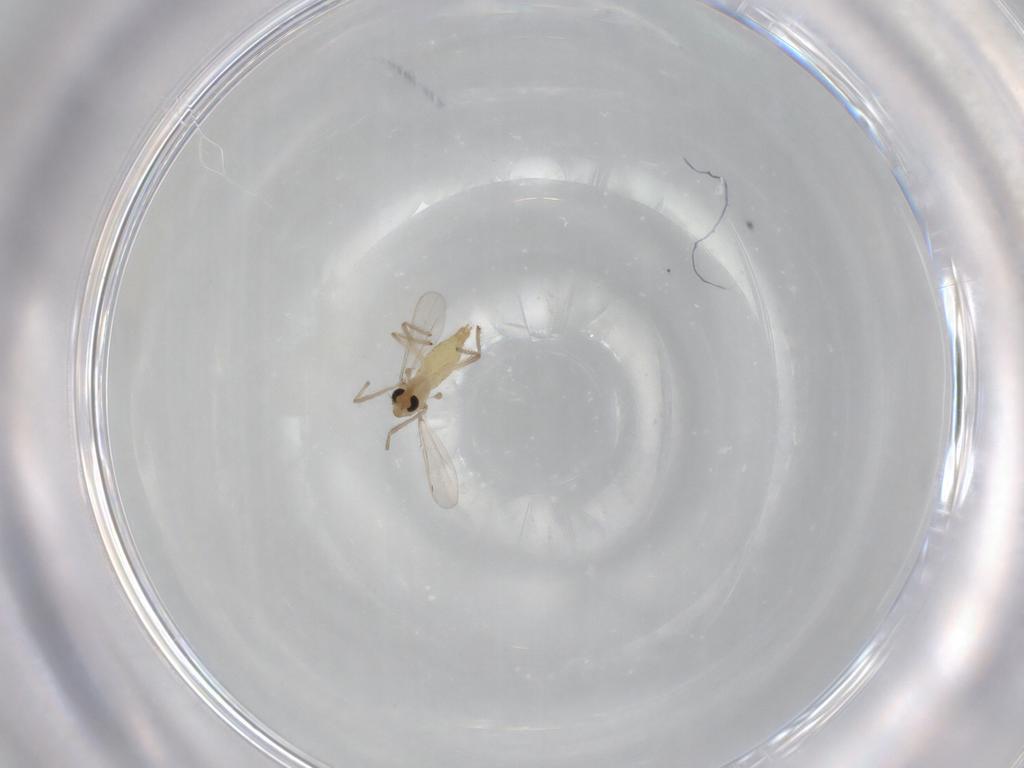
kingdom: Animalia
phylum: Arthropoda
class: Insecta
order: Diptera
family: Chironomidae
